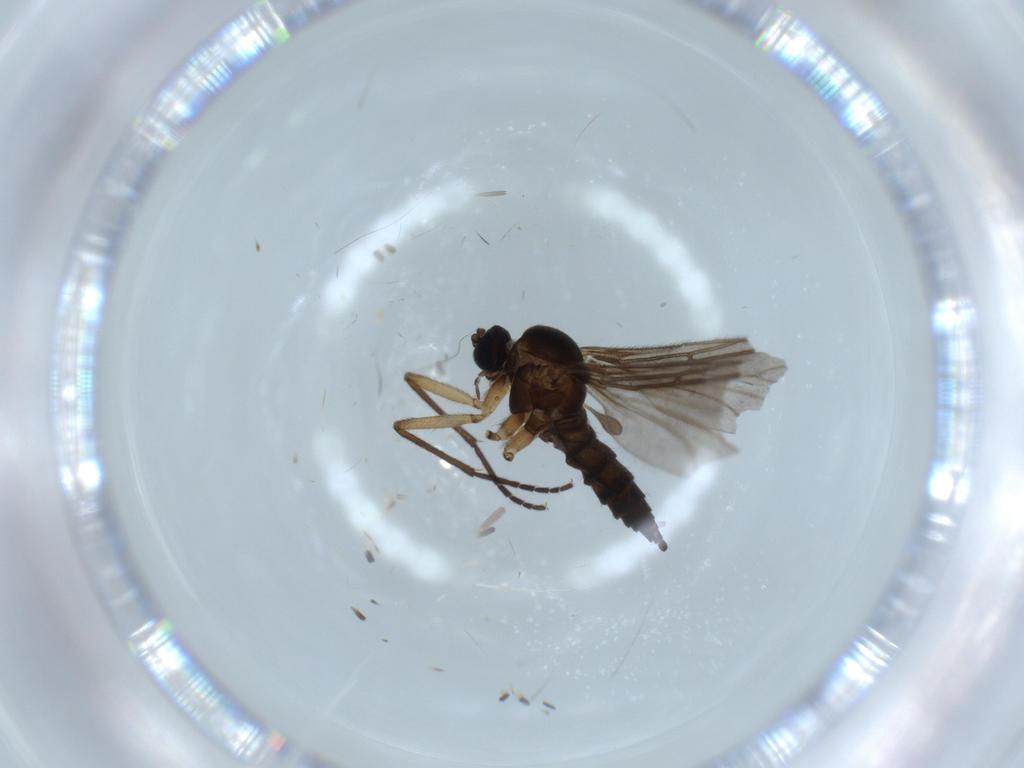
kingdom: Animalia
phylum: Arthropoda
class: Insecta
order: Diptera
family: Sciaridae
